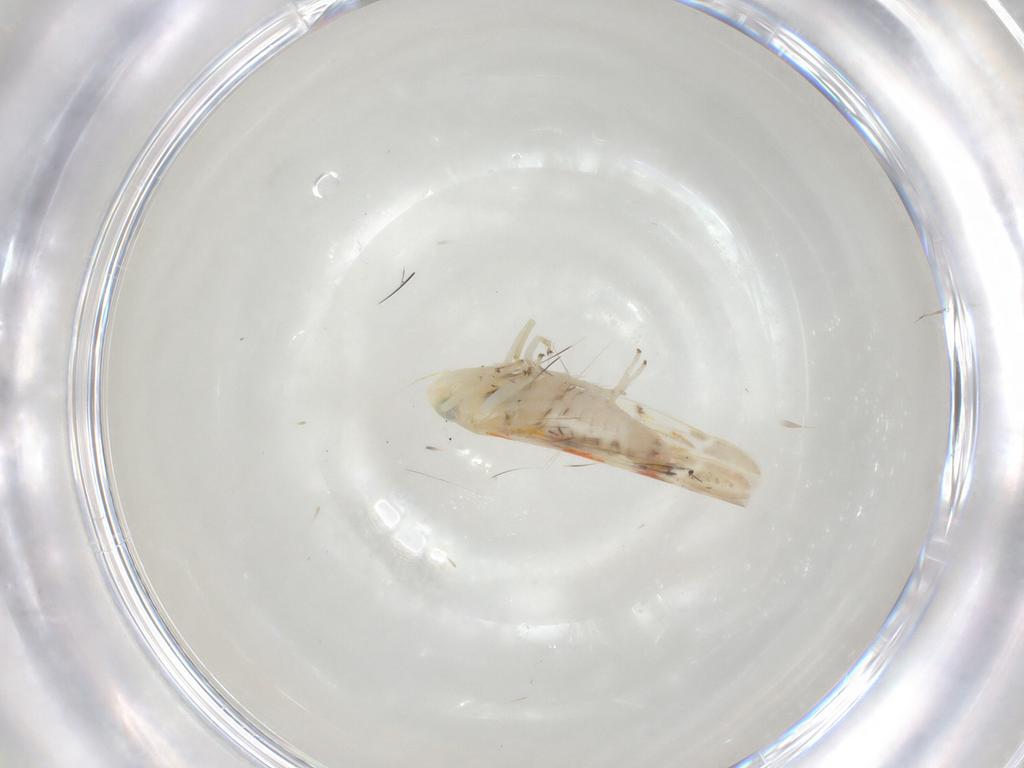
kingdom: Animalia
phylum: Arthropoda
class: Insecta
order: Hemiptera
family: Cicadellidae
